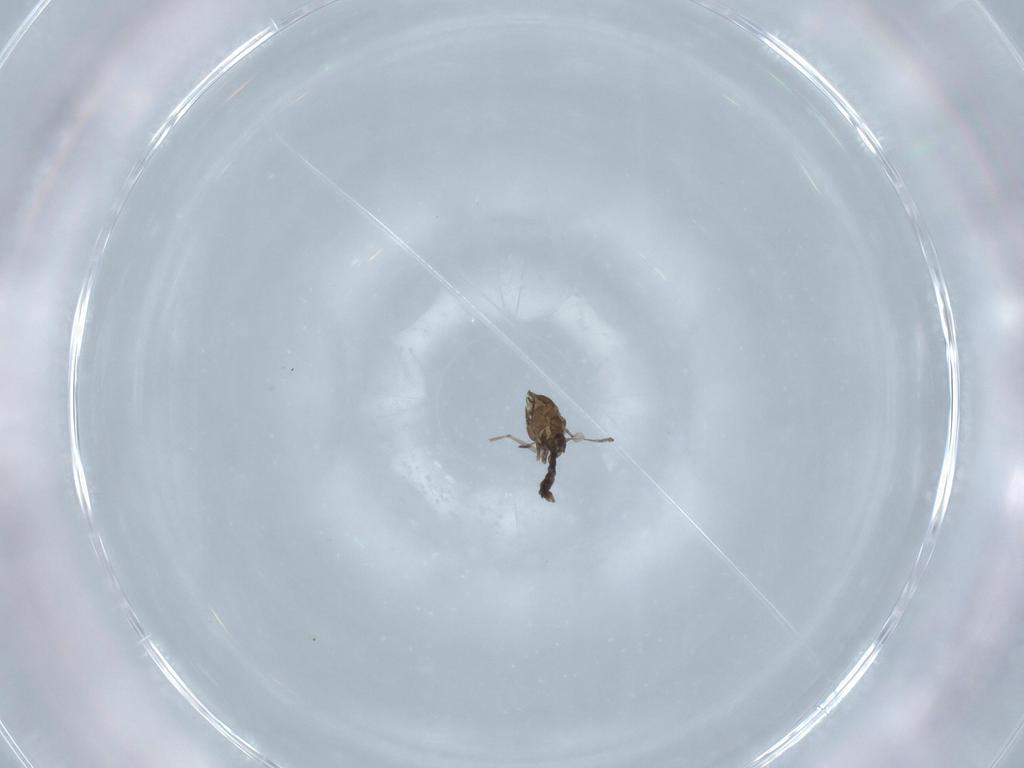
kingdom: Animalia
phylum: Arthropoda
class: Insecta
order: Diptera
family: Cecidomyiidae
